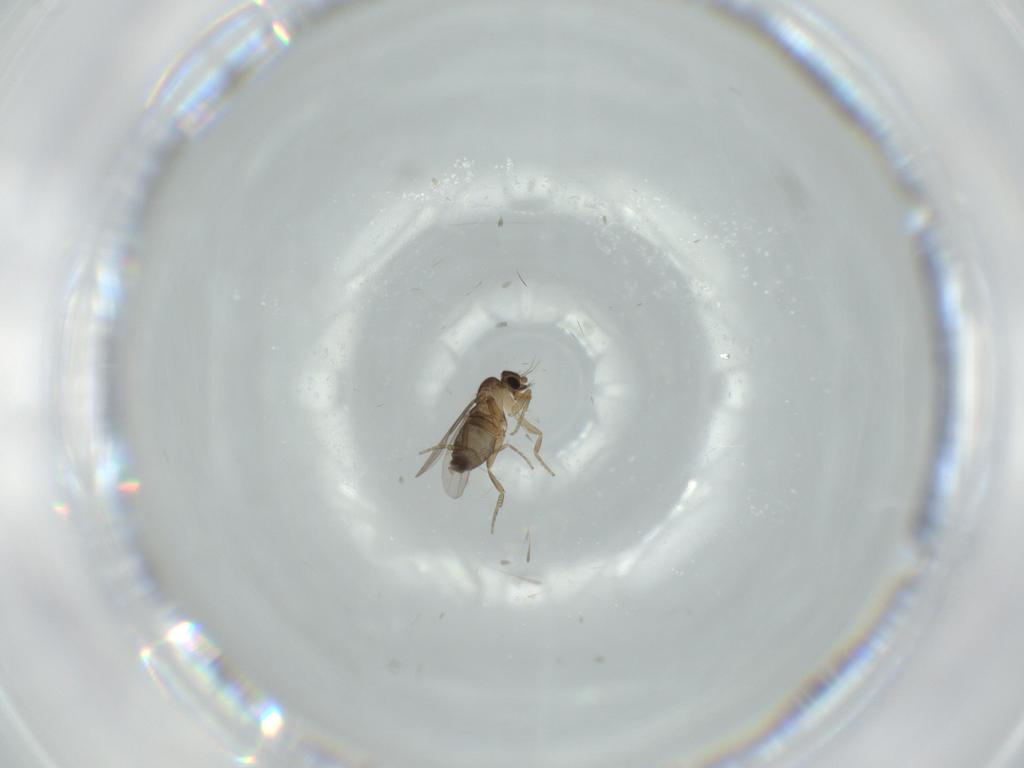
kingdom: Animalia
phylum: Arthropoda
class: Insecta
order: Diptera
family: Phoridae
